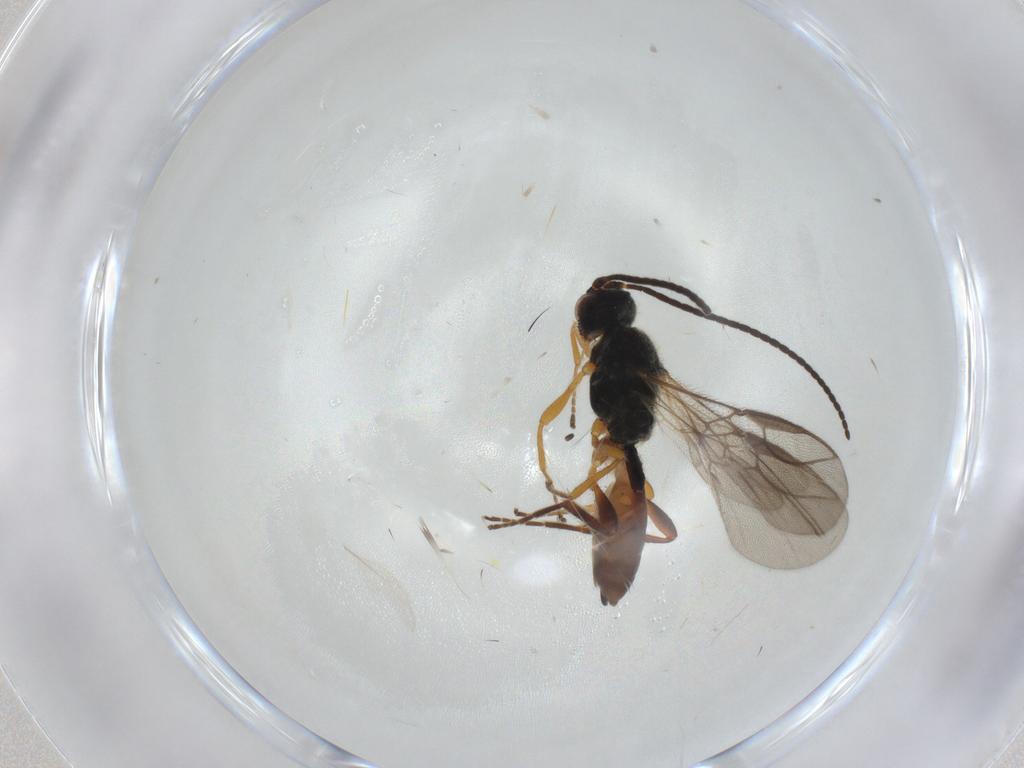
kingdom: Animalia
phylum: Arthropoda
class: Insecta
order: Hymenoptera
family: Braconidae
